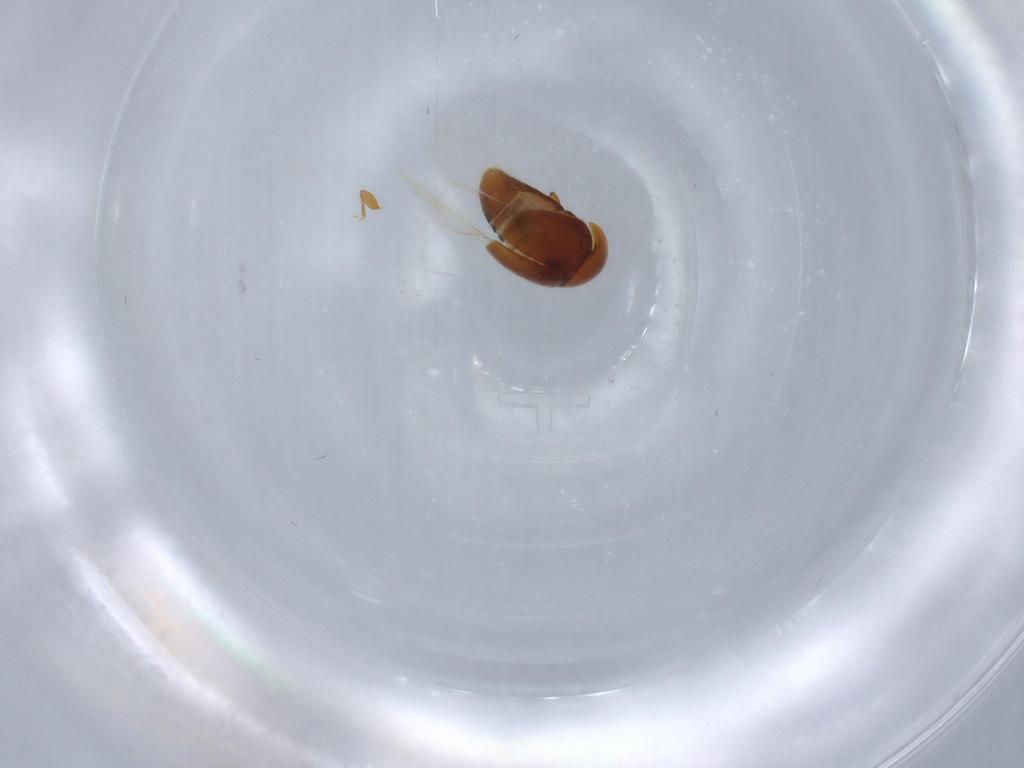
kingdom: Animalia
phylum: Arthropoda
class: Insecta
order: Coleoptera
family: Corylophidae
